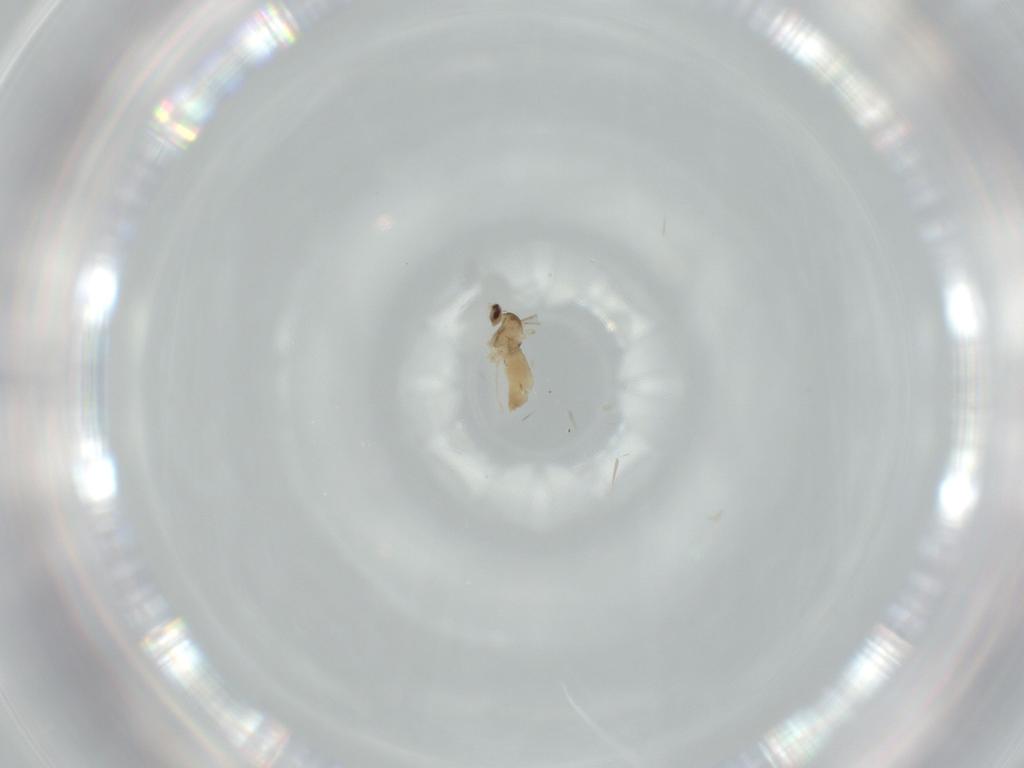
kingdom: Animalia
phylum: Arthropoda
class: Insecta
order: Diptera
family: Cecidomyiidae
